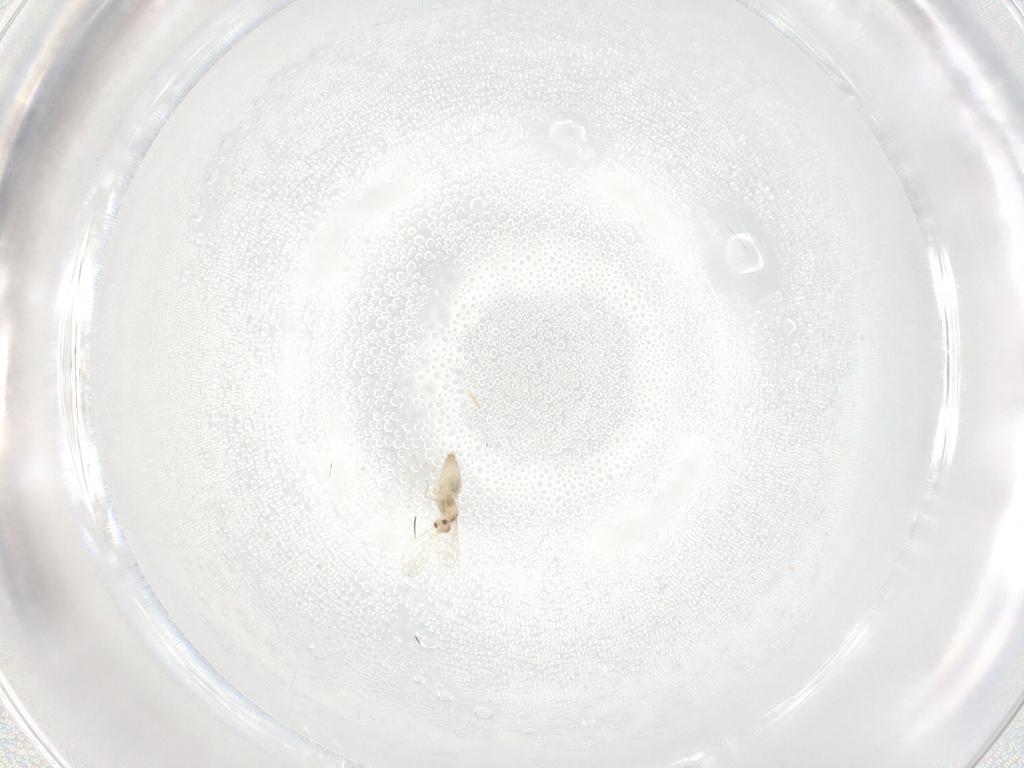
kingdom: Animalia
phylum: Arthropoda
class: Insecta
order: Diptera
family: Cecidomyiidae
